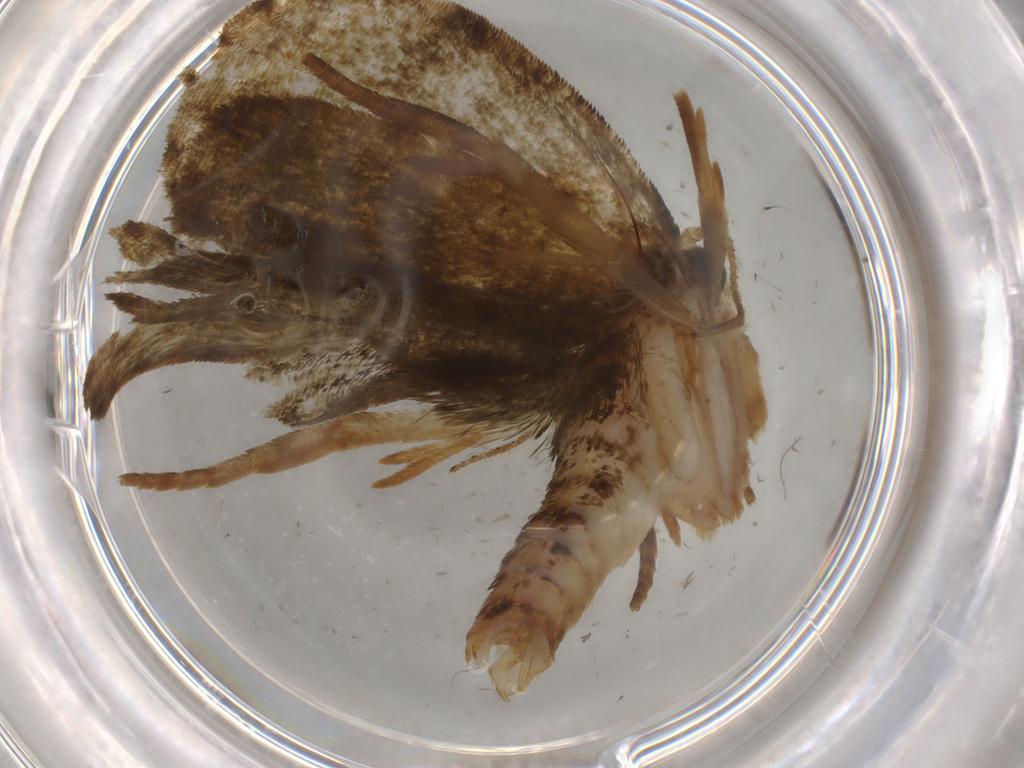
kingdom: Animalia
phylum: Arthropoda
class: Insecta
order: Lepidoptera
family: Geometridae
